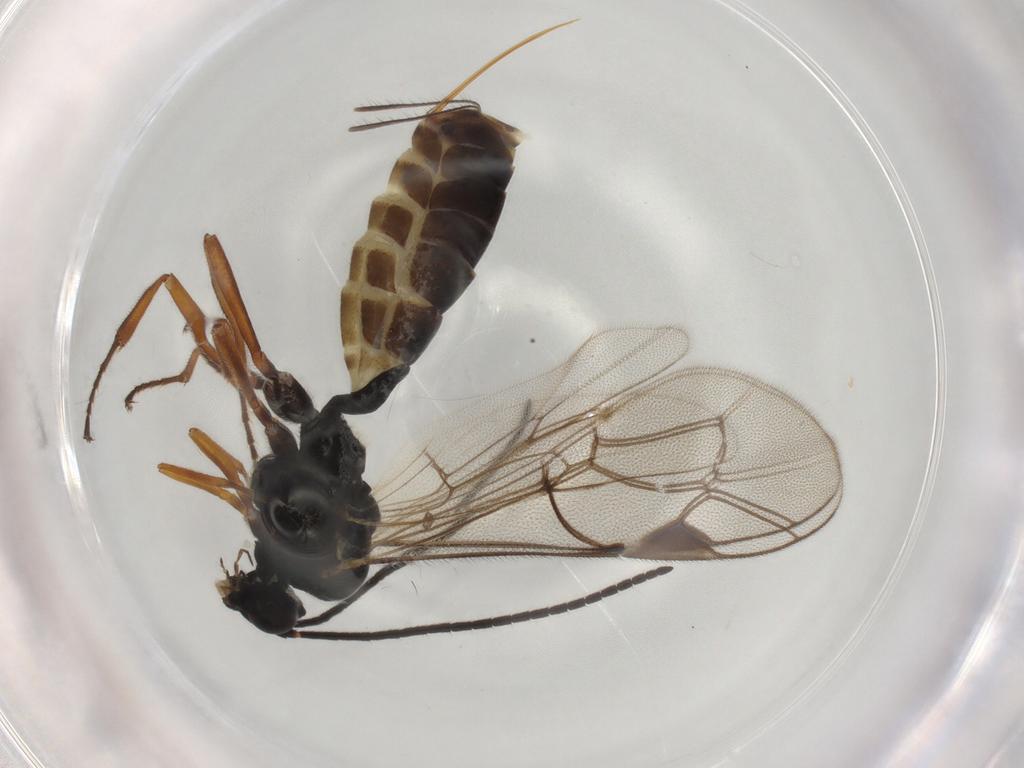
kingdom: Animalia
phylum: Arthropoda
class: Insecta
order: Hymenoptera
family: Ichneumonidae
